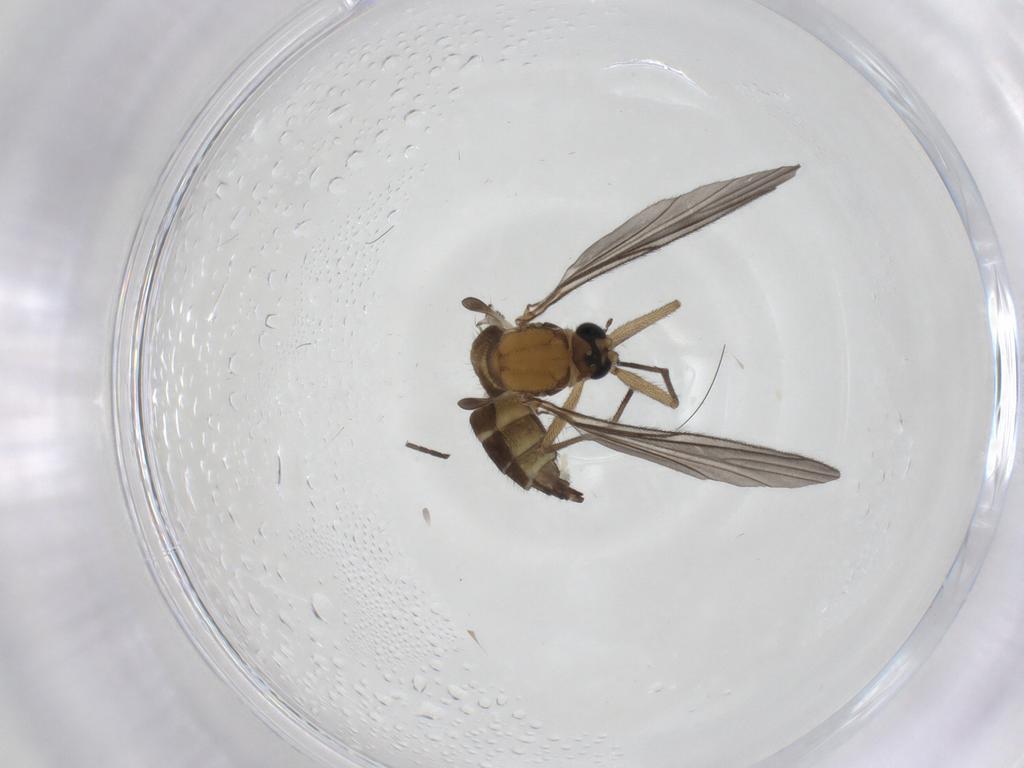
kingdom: Animalia
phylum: Arthropoda
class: Insecta
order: Diptera
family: Sciaridae
